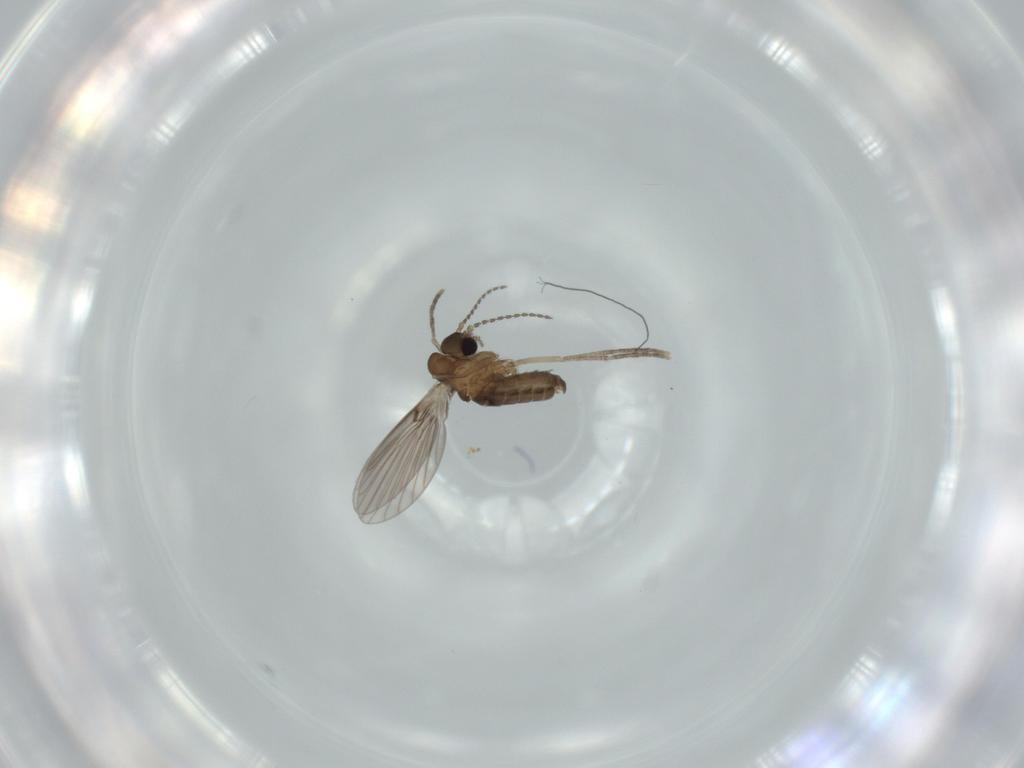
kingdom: Animalia
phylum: Arthropoda
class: Insecta
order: Diptera
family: Psychodidae
